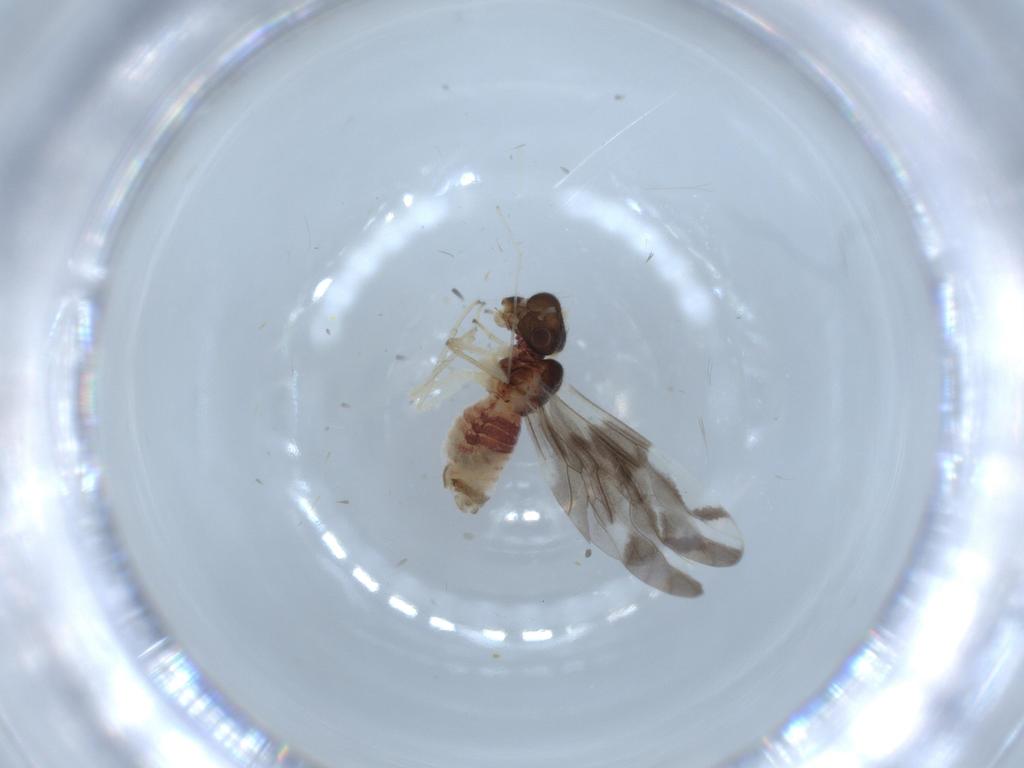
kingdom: Animalia
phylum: Arthropoda
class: Insecta
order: Psocodea
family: Caeciliusidae
